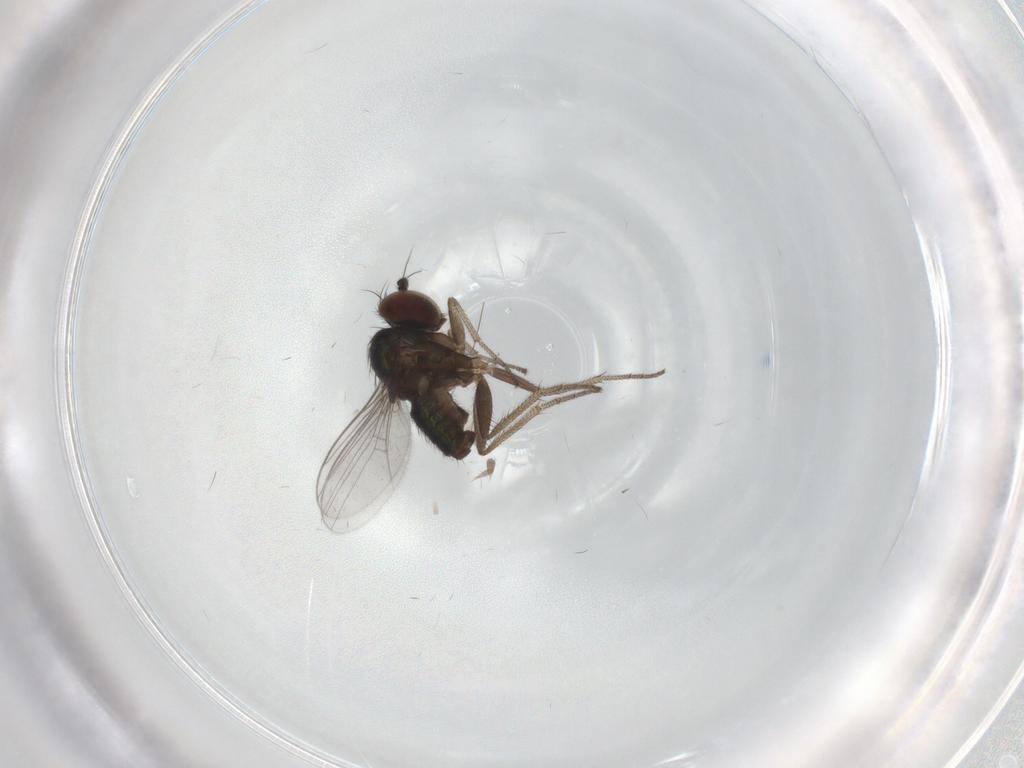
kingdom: Animalia
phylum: Arthropoda
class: Insecta
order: Diptera
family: Dolichopodidae
